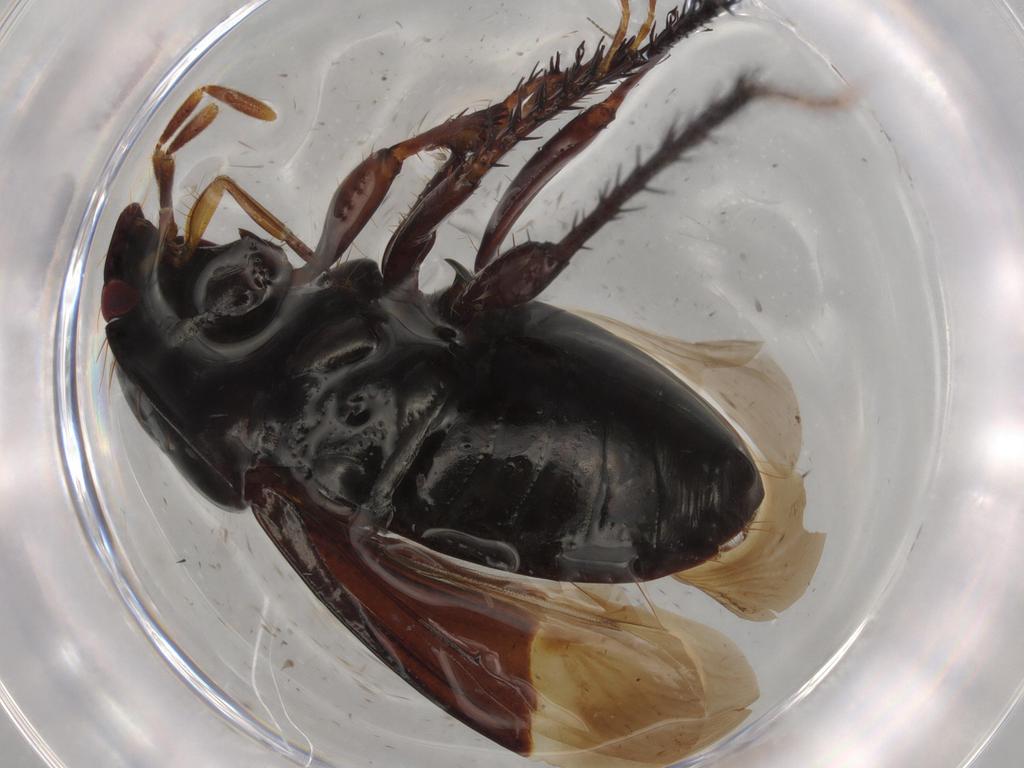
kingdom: Animalia
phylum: Arthropoda
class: Insecta
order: Hemiptera
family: Cydnidae
